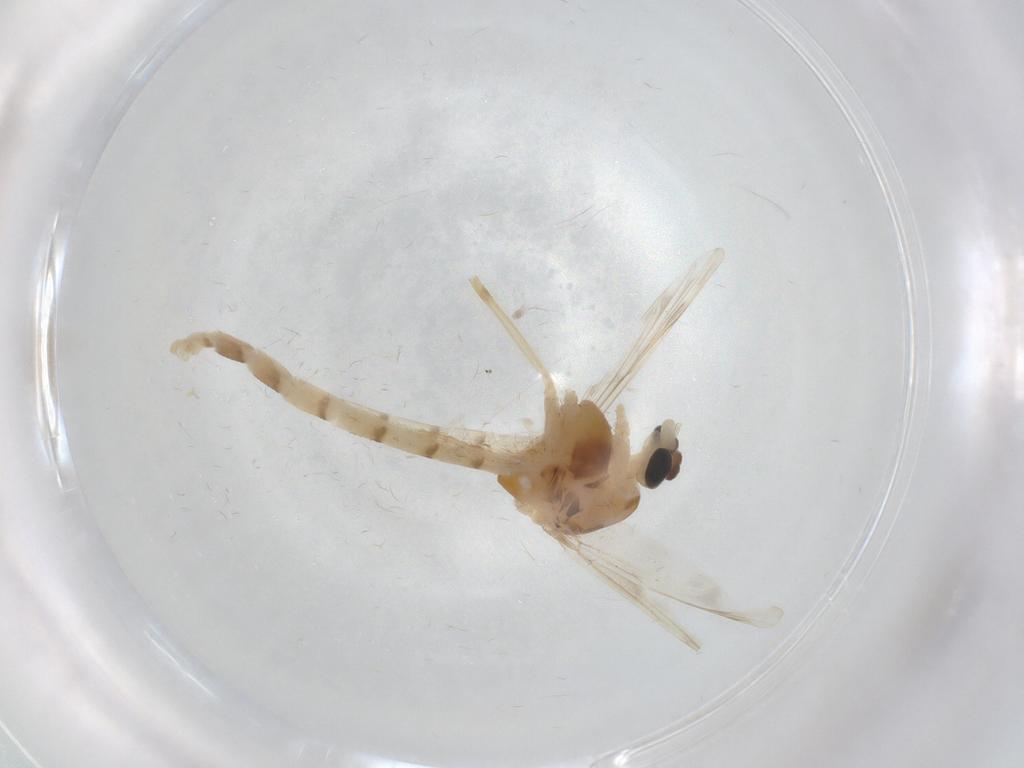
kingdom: Animalia
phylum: Arthropoda
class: Insecta
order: Diptera
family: Chironomidae
